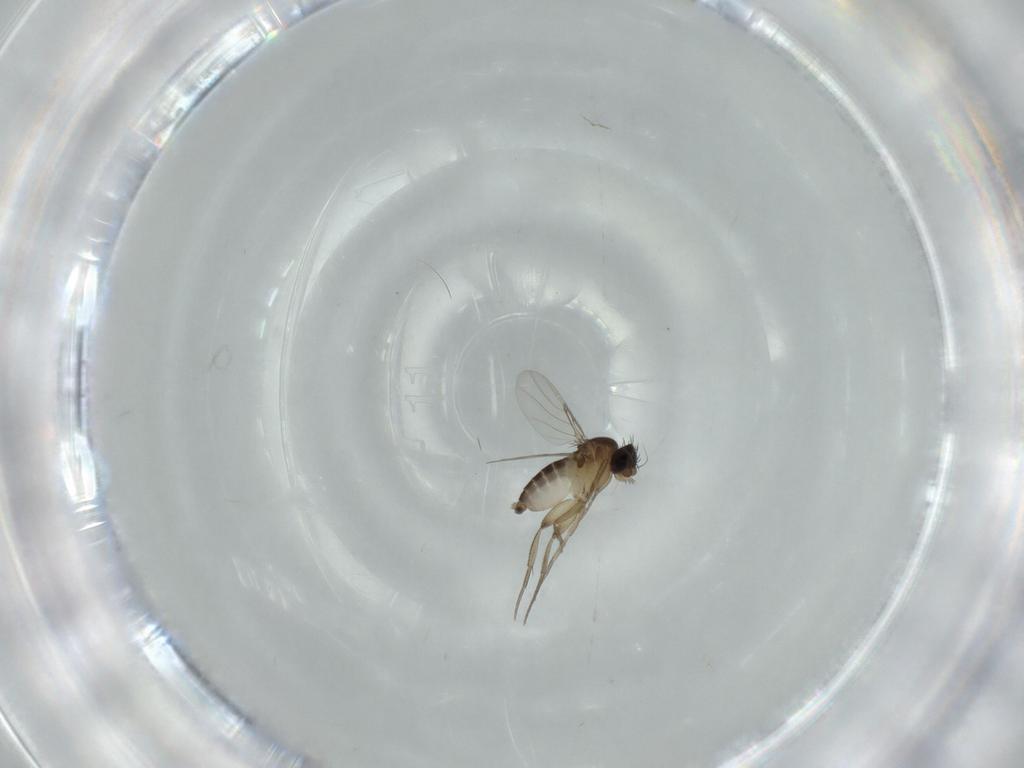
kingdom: Animalia
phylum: Arthropoda
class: Insecta
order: Diptera
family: Phoridae
